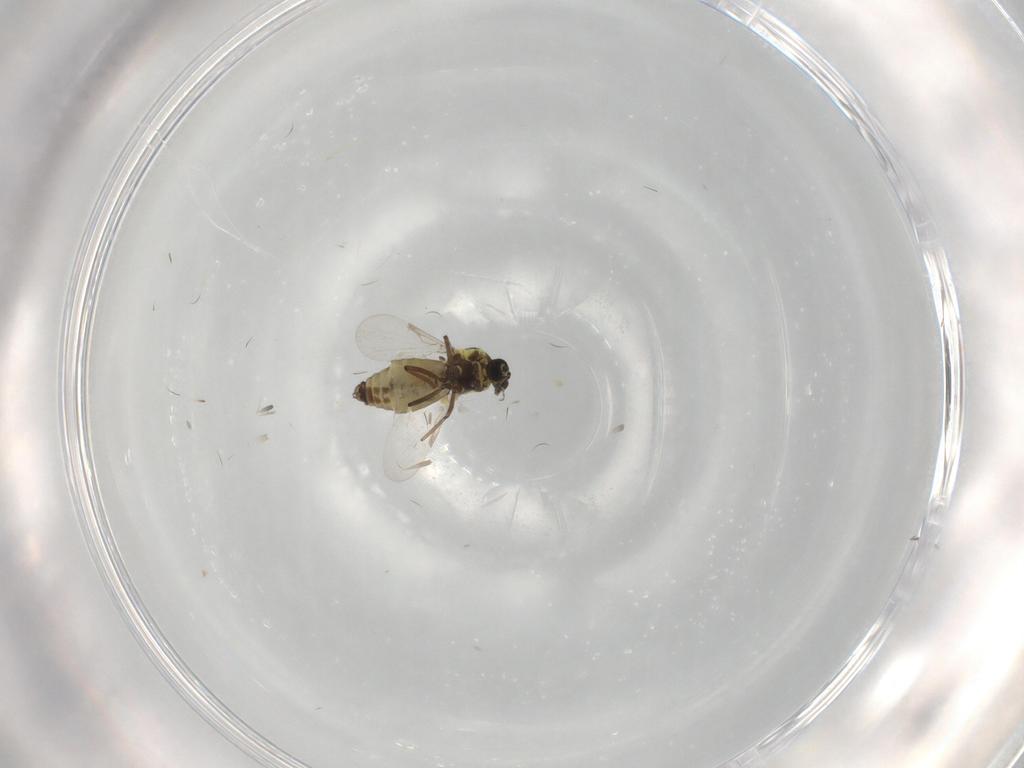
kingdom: Animalia
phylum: Arthropoda
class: Insecta
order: Diptera
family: Ceratopogonidae
